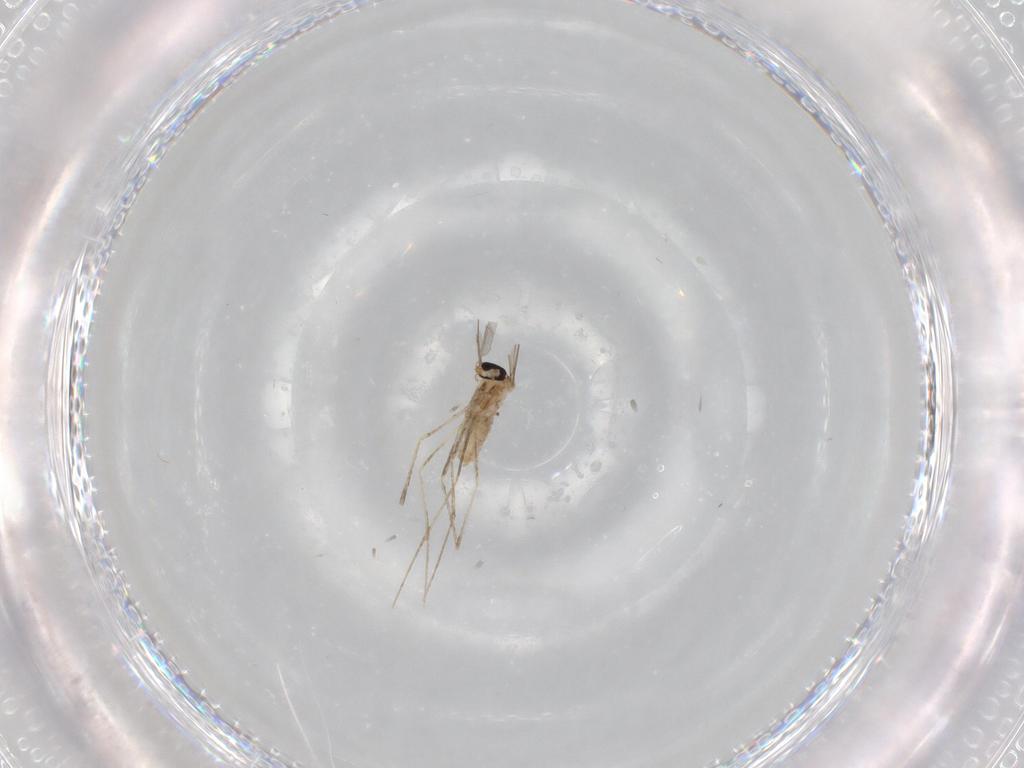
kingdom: Animalia
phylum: Arthropoda
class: Insecta
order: Diptera
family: Cecidomyiidae
